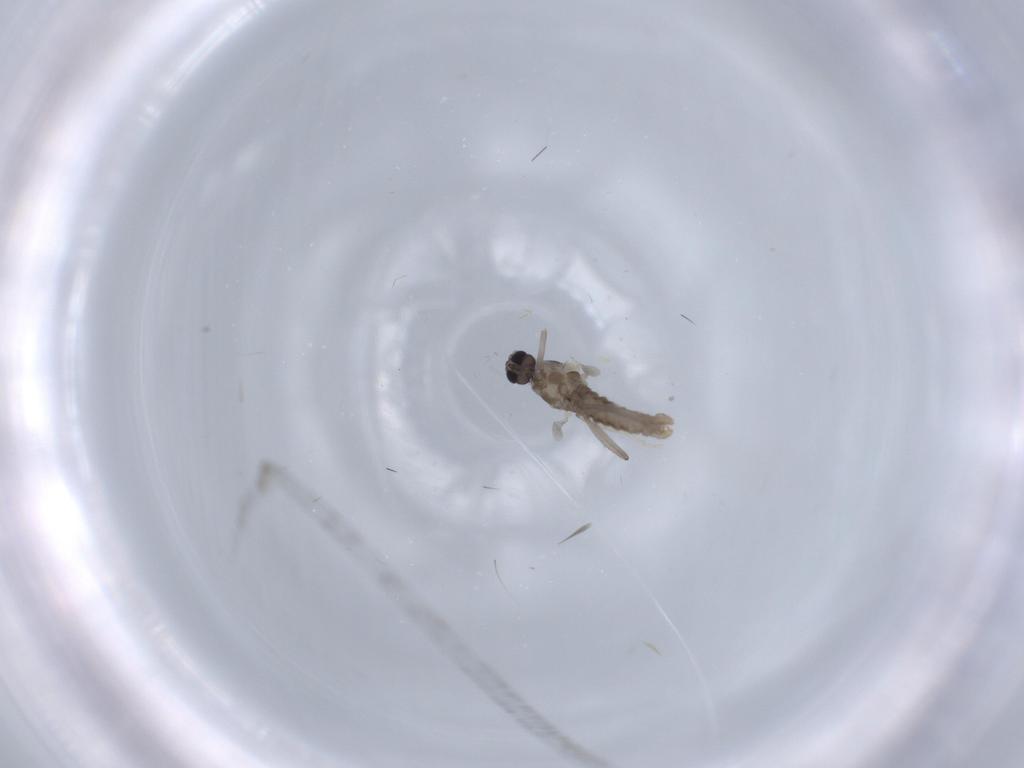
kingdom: Animalia
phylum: Arthropoda
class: Insecta
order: Diptera
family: Cecidomyiidae
